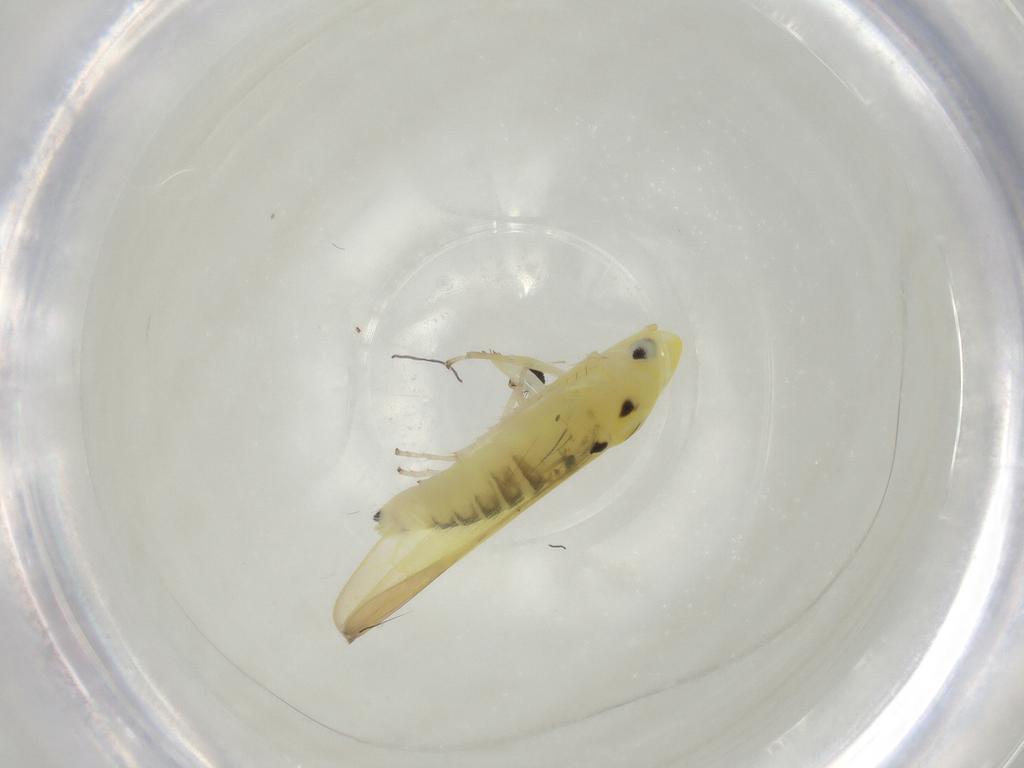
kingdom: Animalia
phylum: Arthropoda
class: Insecta
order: Hemiptera
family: Cicadellidae
